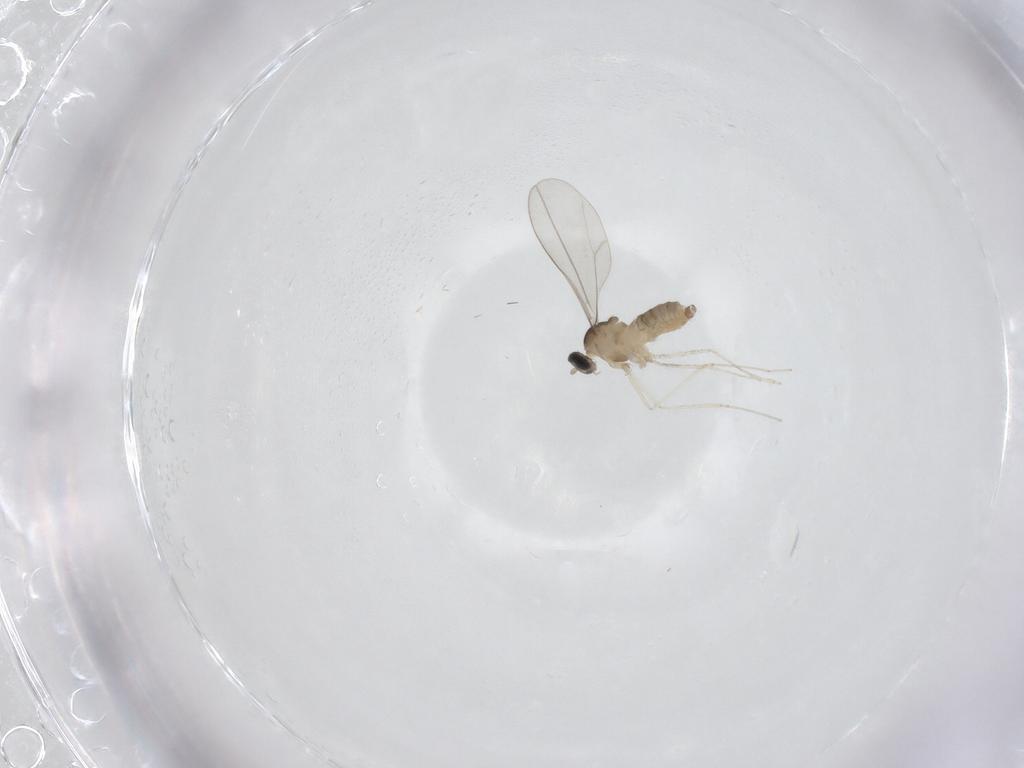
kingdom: Animalia
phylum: Arthropoda
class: Insecta
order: Diptera
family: Cecidomyiidae
